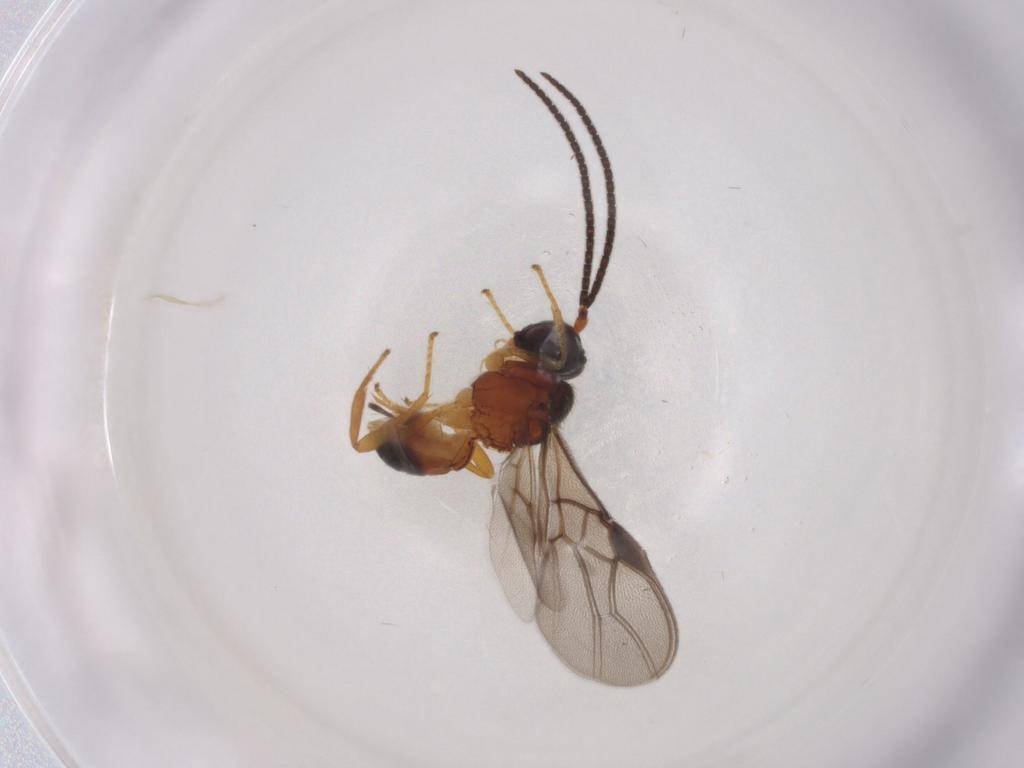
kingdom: Animalia
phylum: Arthropoda
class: Insecta
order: Hymenoptera
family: Braconidae
